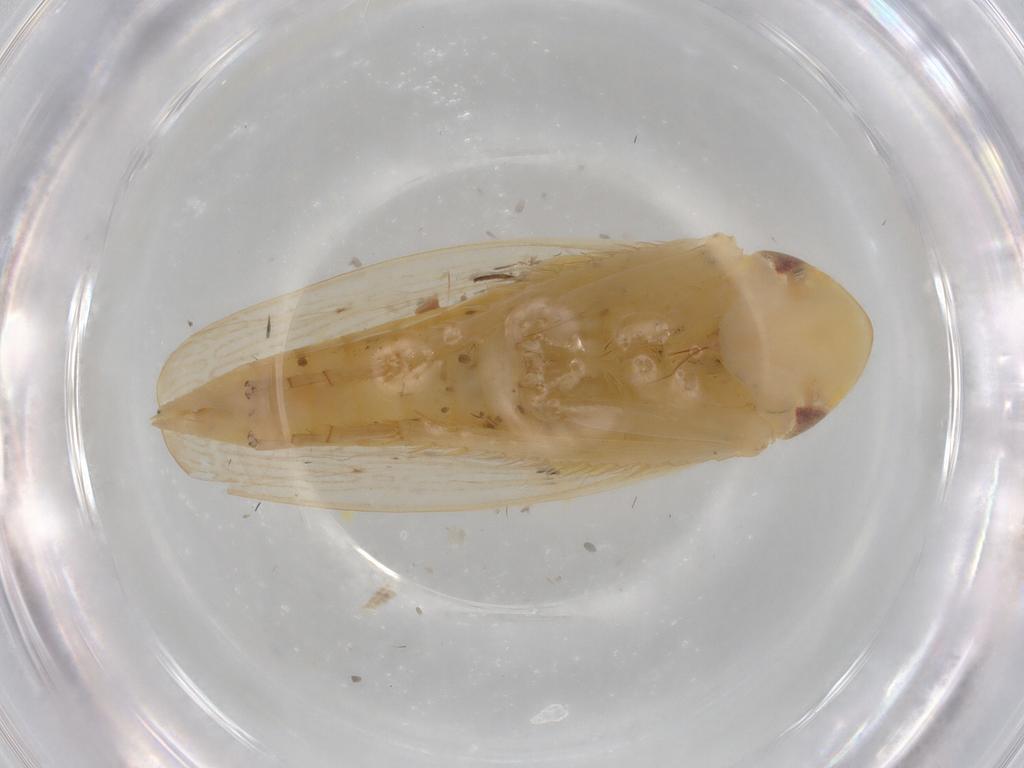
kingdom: Animalia
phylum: Arthropoda
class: Insecta
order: Hemiptera
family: Cicadellidae
